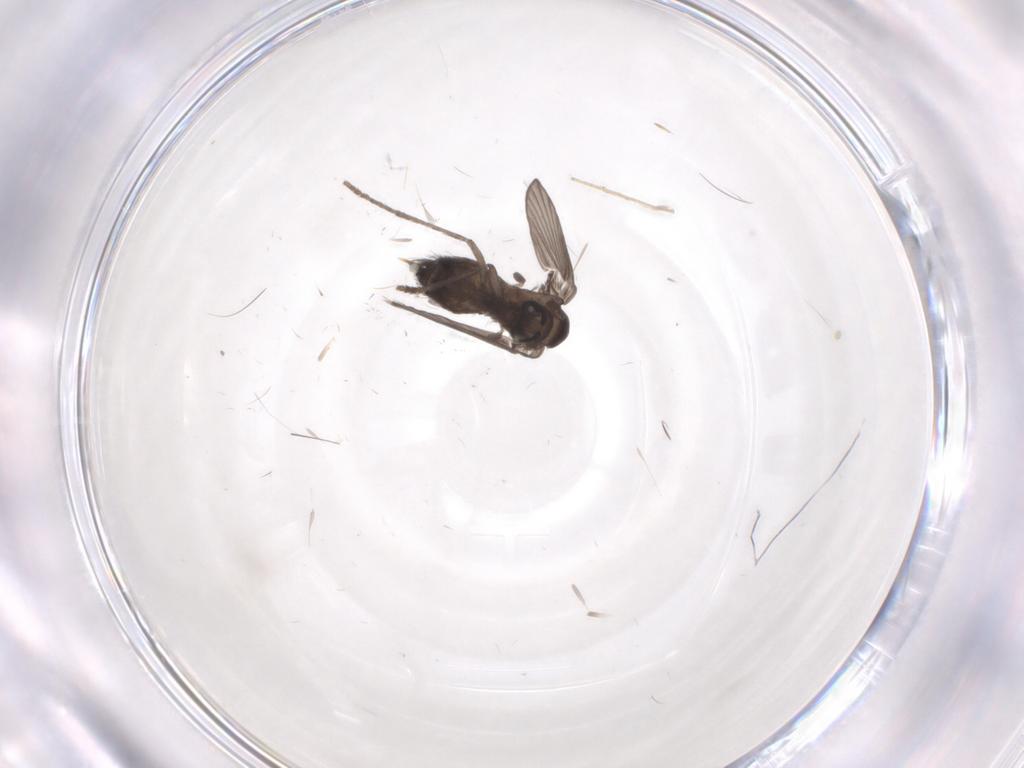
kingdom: Animalia
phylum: Arthropoda
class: Insecta
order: Diptera
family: Psychodidae
